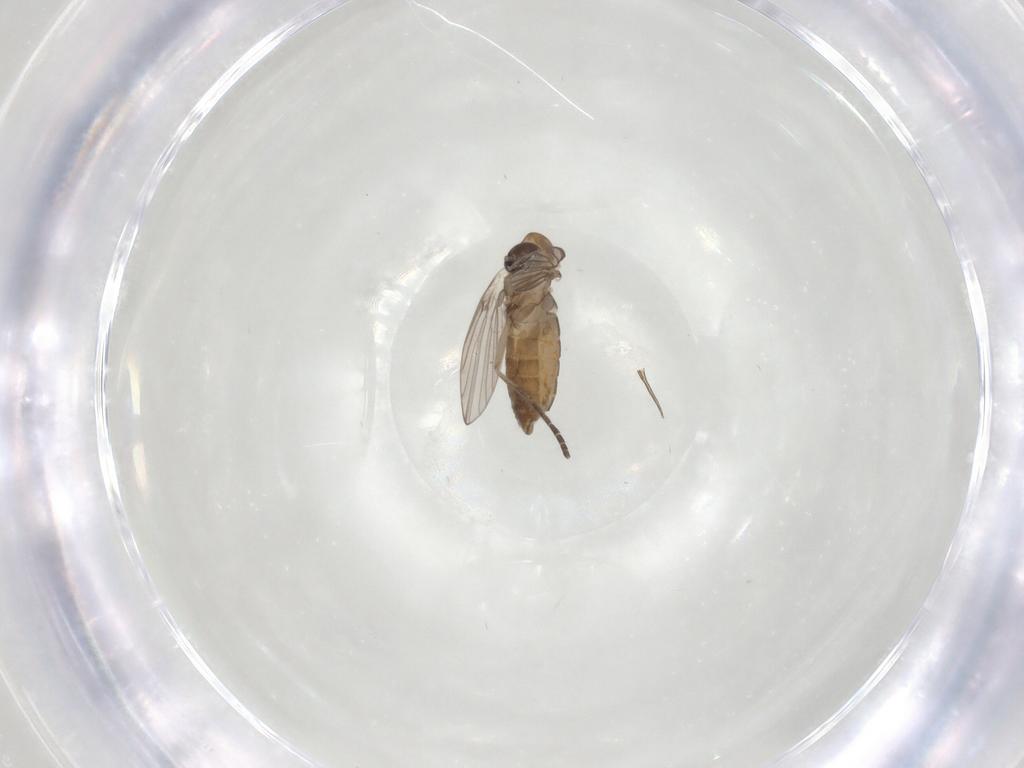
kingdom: Animalia
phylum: Arthropoda
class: Insecta
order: Diptera
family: Psychodidae
